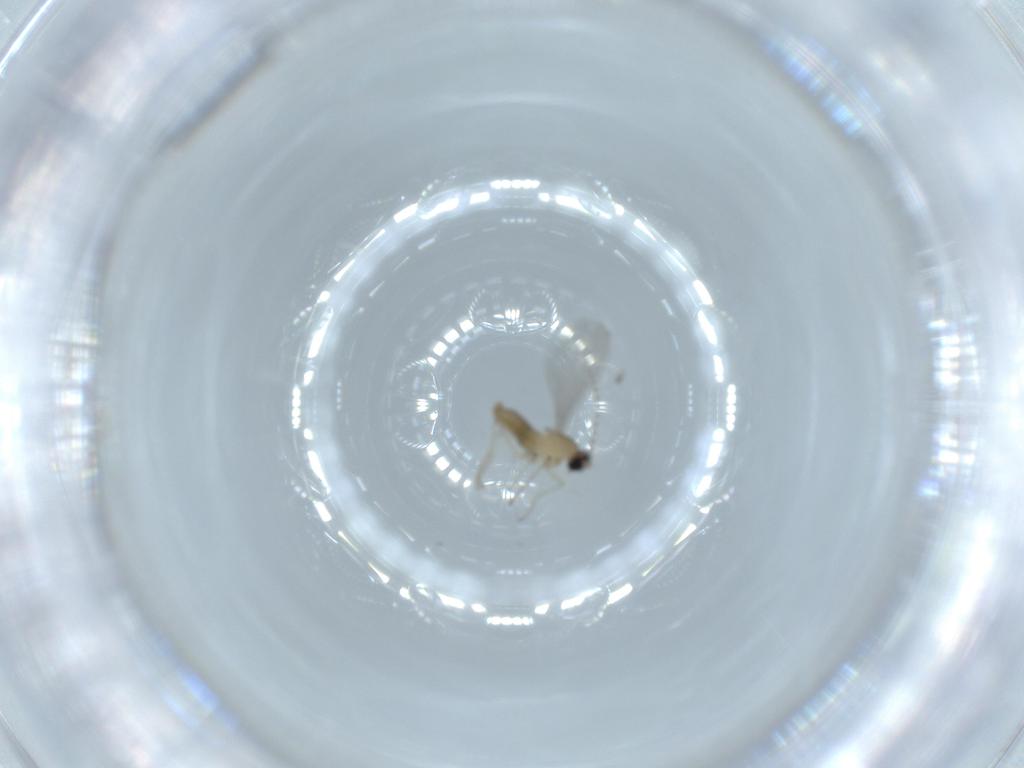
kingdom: Animalia
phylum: Arthropoda
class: Insecta
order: Diptera
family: Cecidomyiidae
